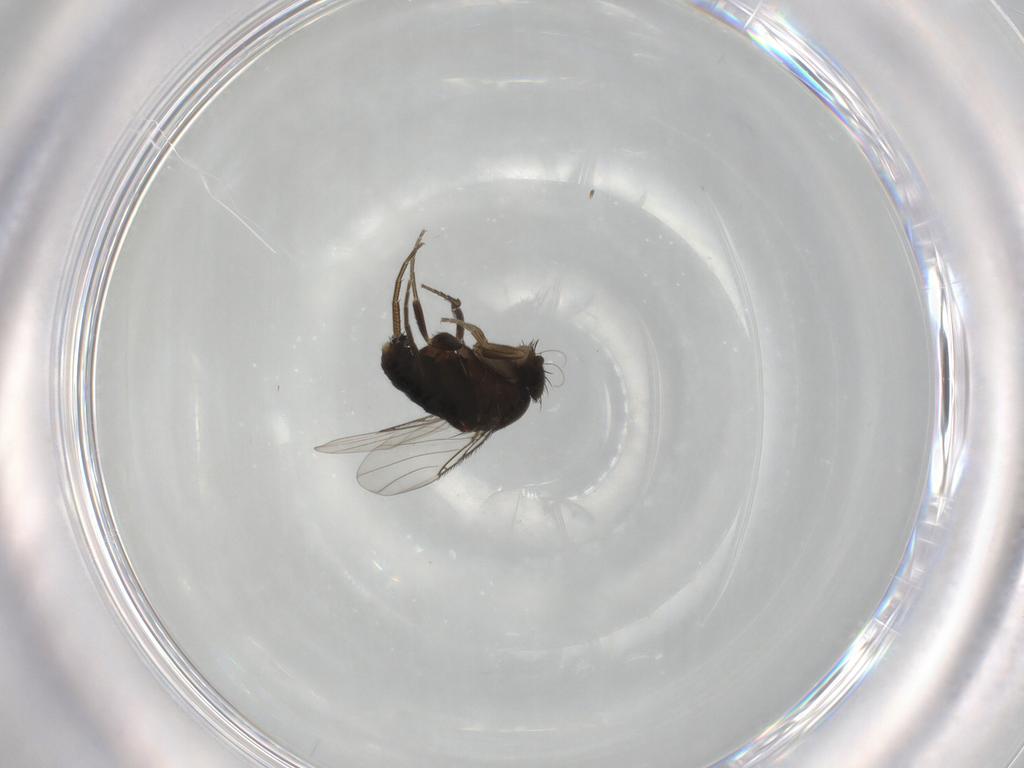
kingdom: Animalia
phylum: Arthropoda
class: Insecta
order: Diptera
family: Phoridae
